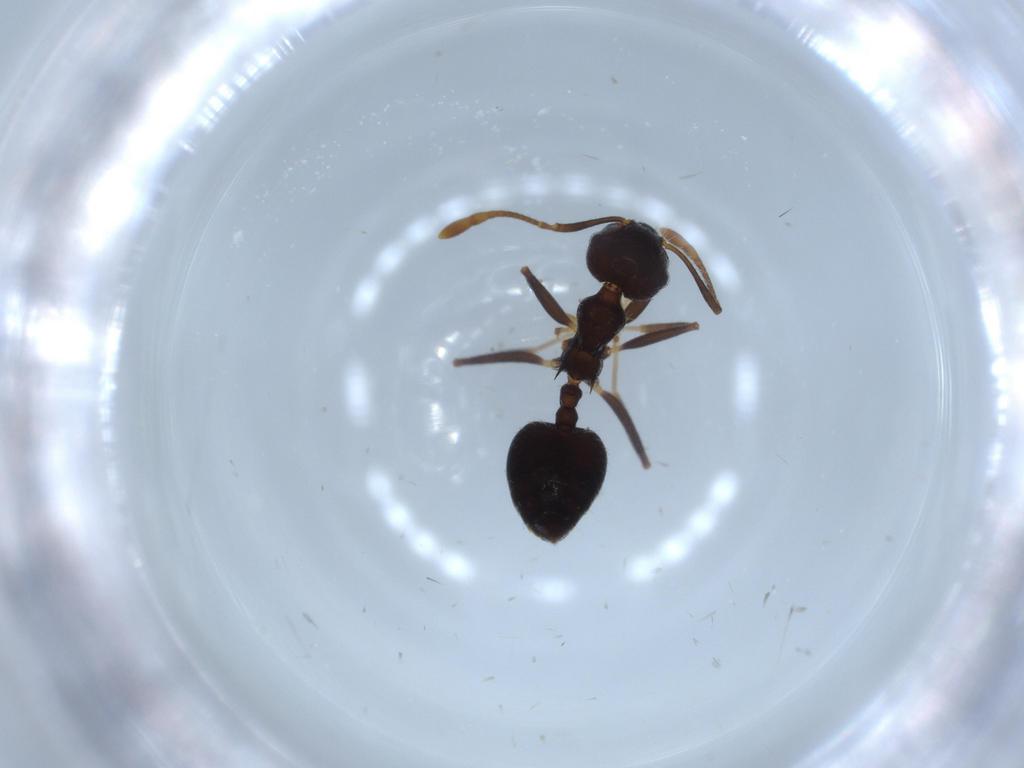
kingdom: Animalia
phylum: Arthropoda
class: Insecta
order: Hymenoptera
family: Formicidae
